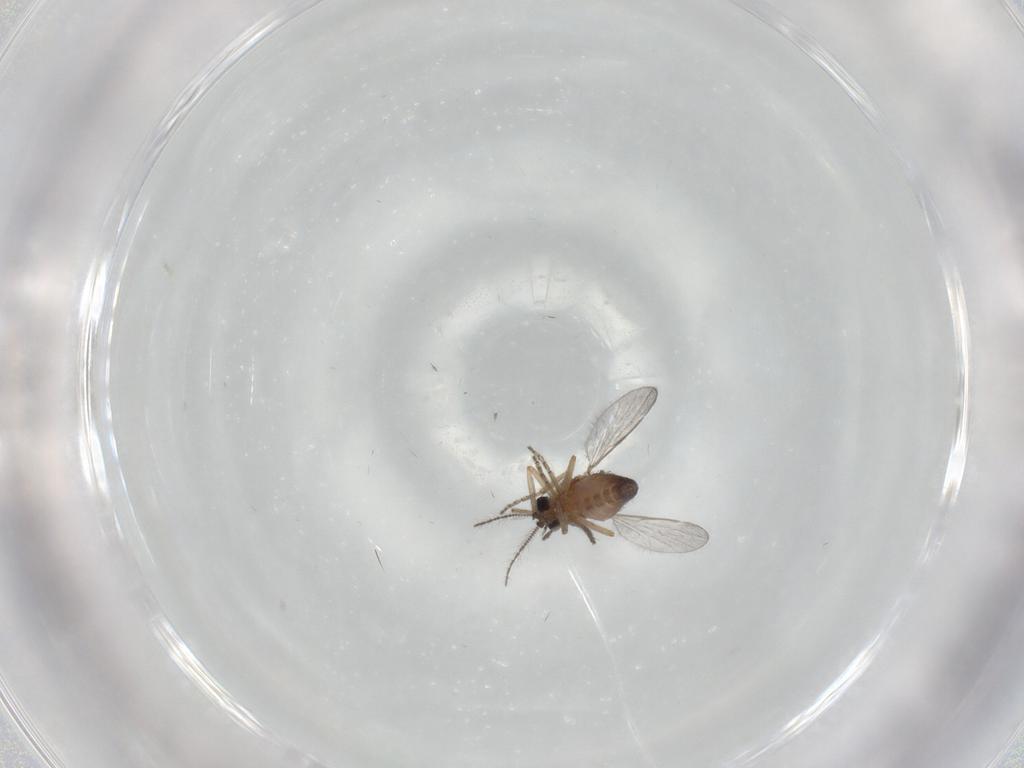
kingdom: Animalia
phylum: Arthropoda
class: Insecta
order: Diptera
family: Ceratopogonidae
